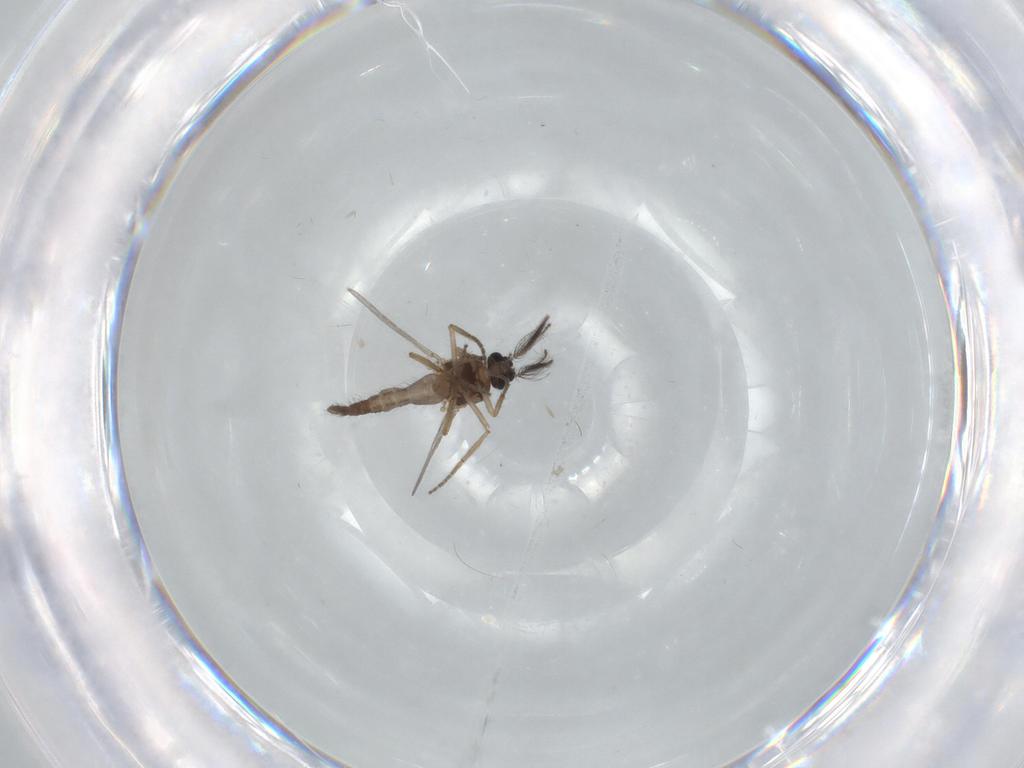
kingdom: Animalia
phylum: Arthropoda
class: Insecta
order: Diptera
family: Ceratopogonidae
